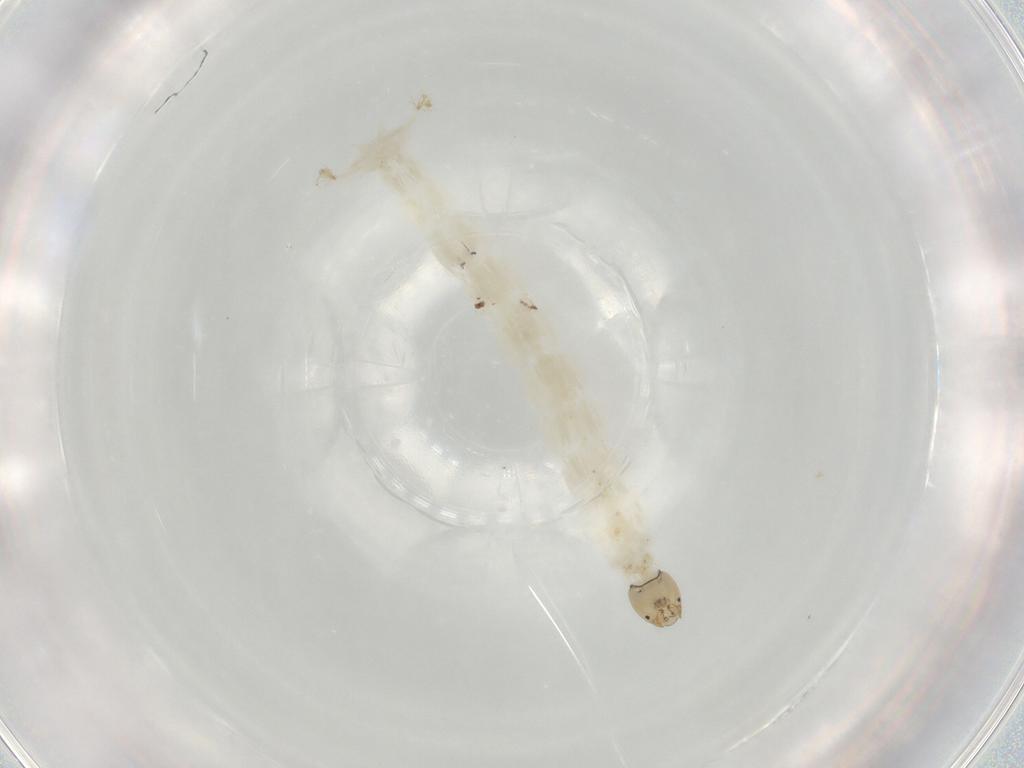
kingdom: Animalia
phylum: Arthropoda
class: Insecta
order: Diptera
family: Chironomidae
